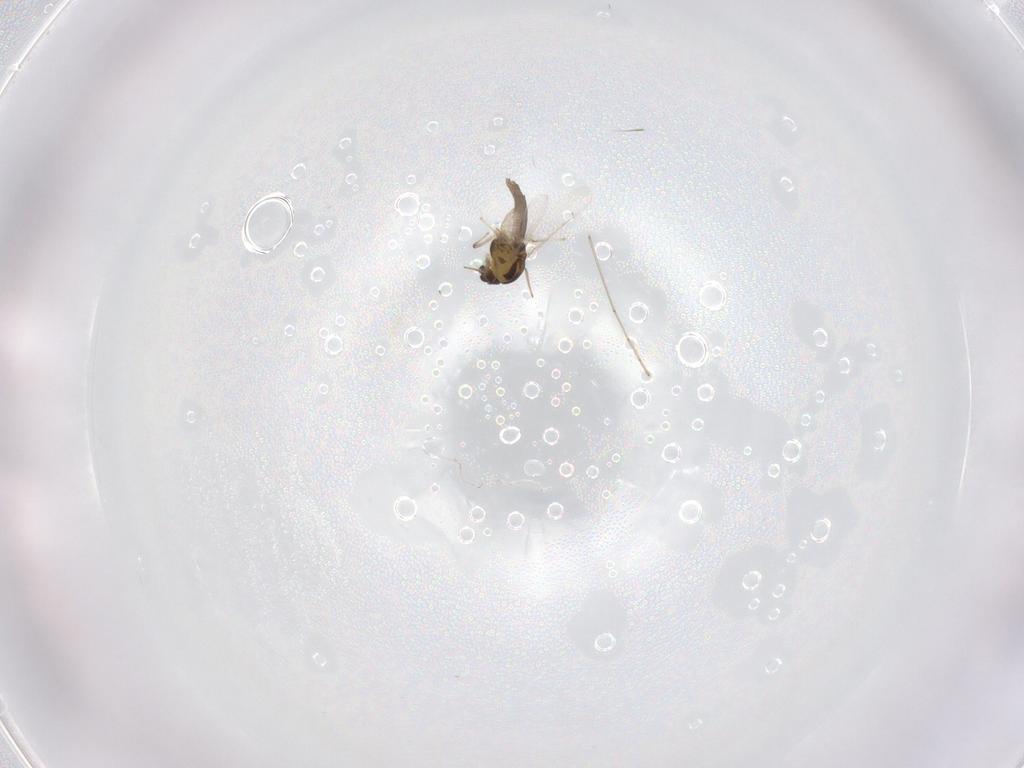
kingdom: Animalia
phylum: Arthropoda
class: Insecta
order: Diptera
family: Chironomidae
